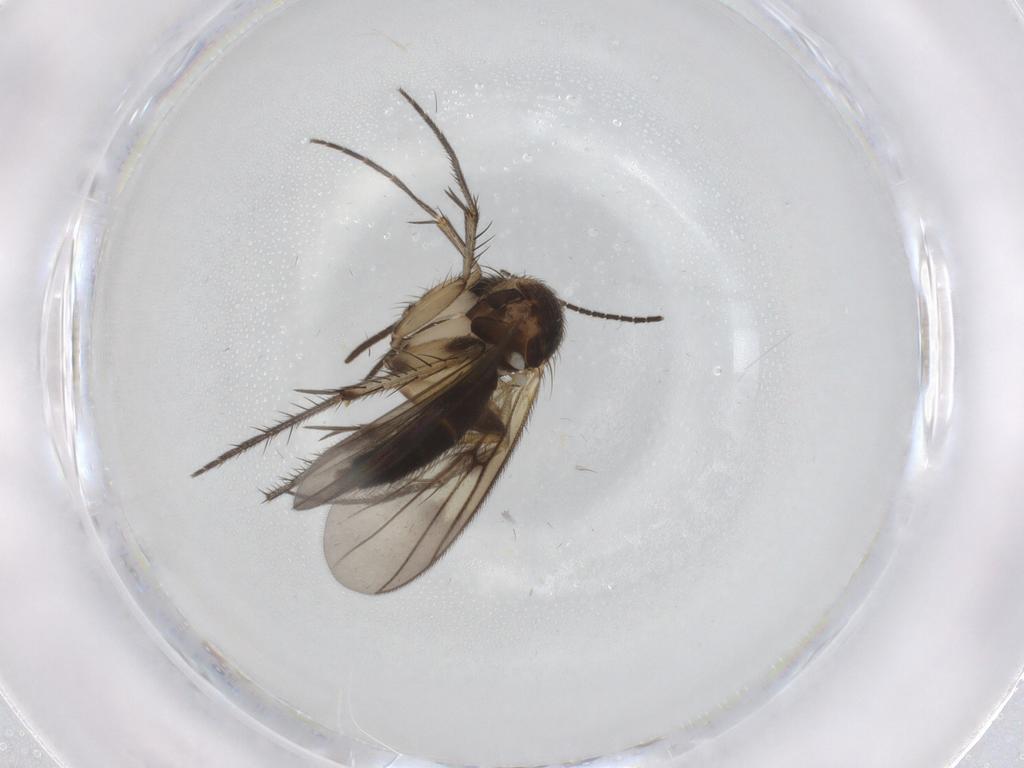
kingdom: Animalia
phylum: Arthropoda
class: Insecta
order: Diptera
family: Mycetophilidae
